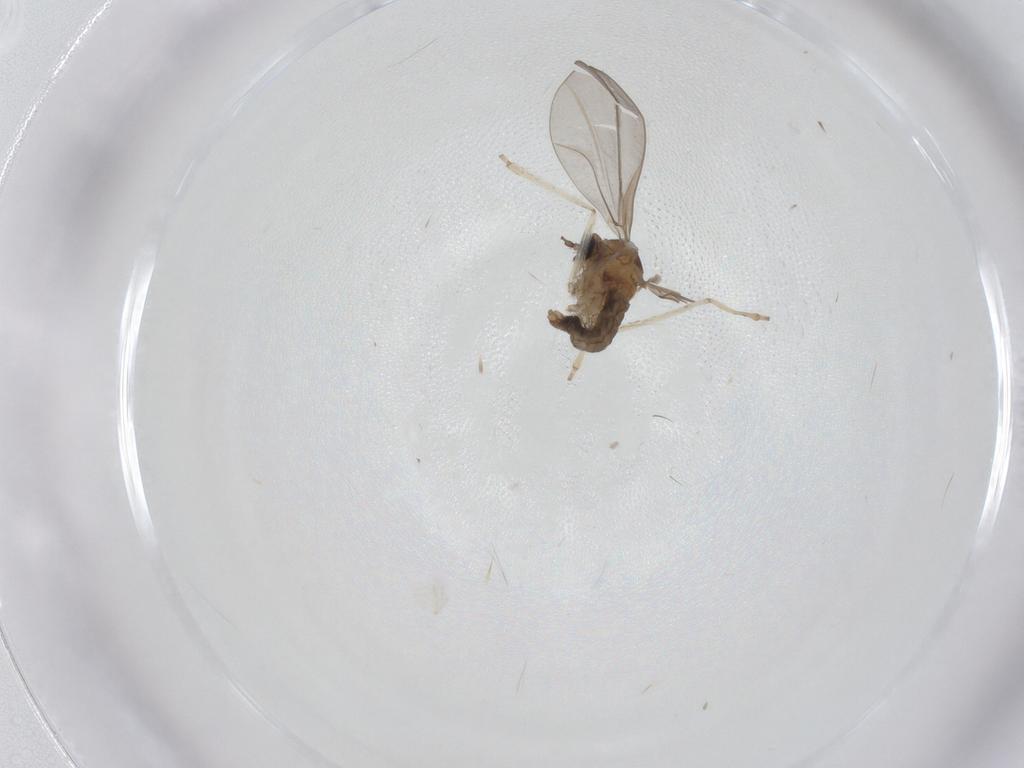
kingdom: Animalia
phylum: Arthropoda
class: Insecta
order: Diptera
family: Cecidomyiidae
